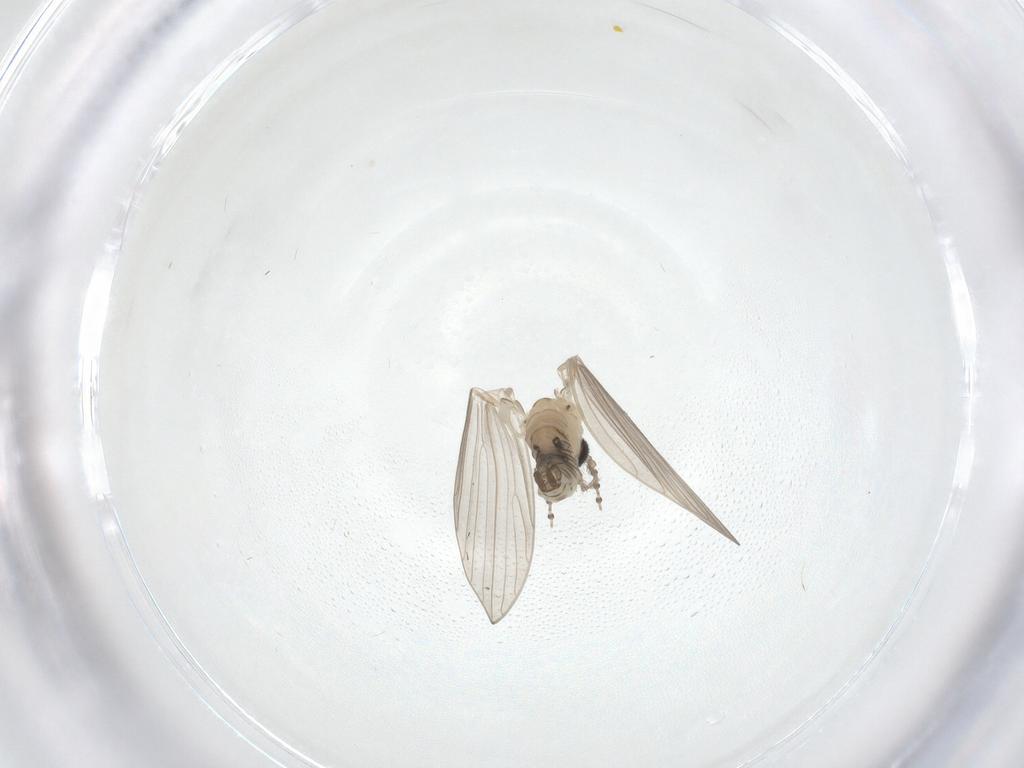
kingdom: Animalia
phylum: Arthropoda
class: Insecta
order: Diptera
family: Psychodidae
